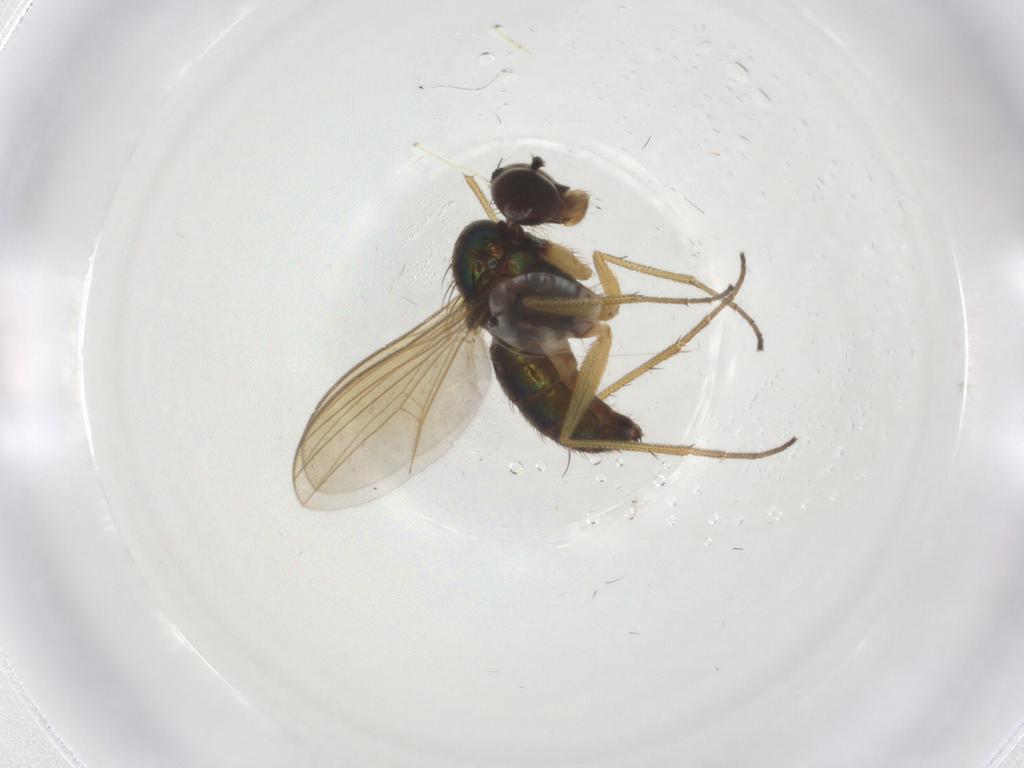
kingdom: Animalia
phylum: Arthropoda
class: Insecta
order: Diptera
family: Dolichopodidae
